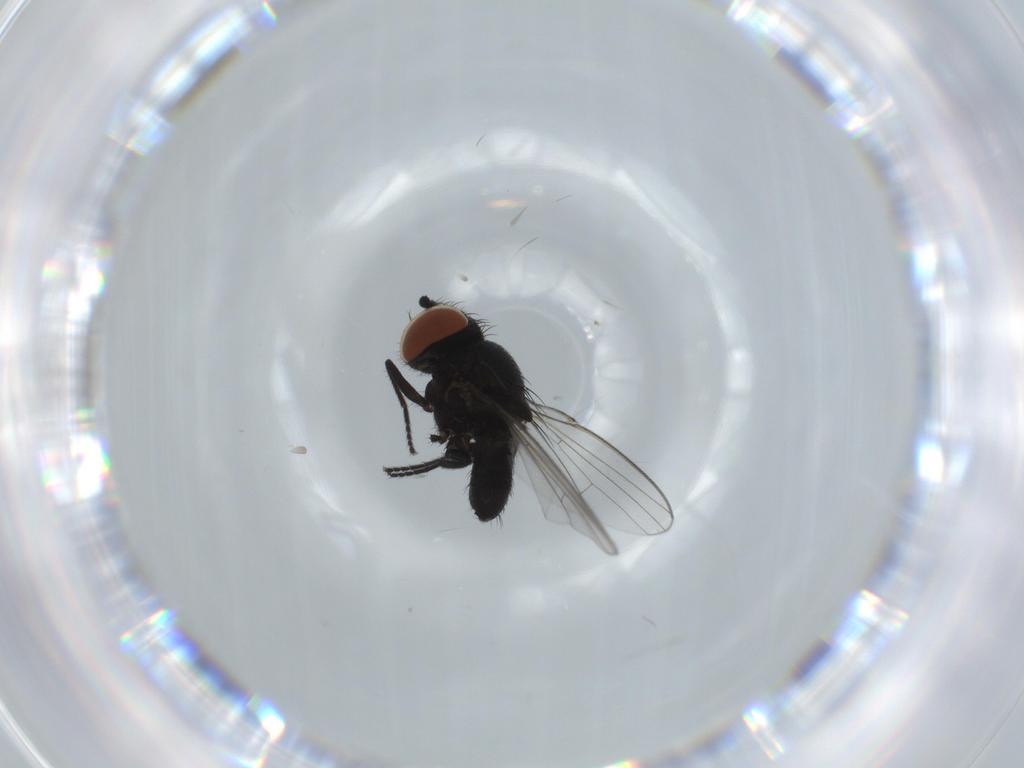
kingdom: Animalia
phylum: Arthropoda
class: Insecta
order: Diptera
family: Milichiidae
